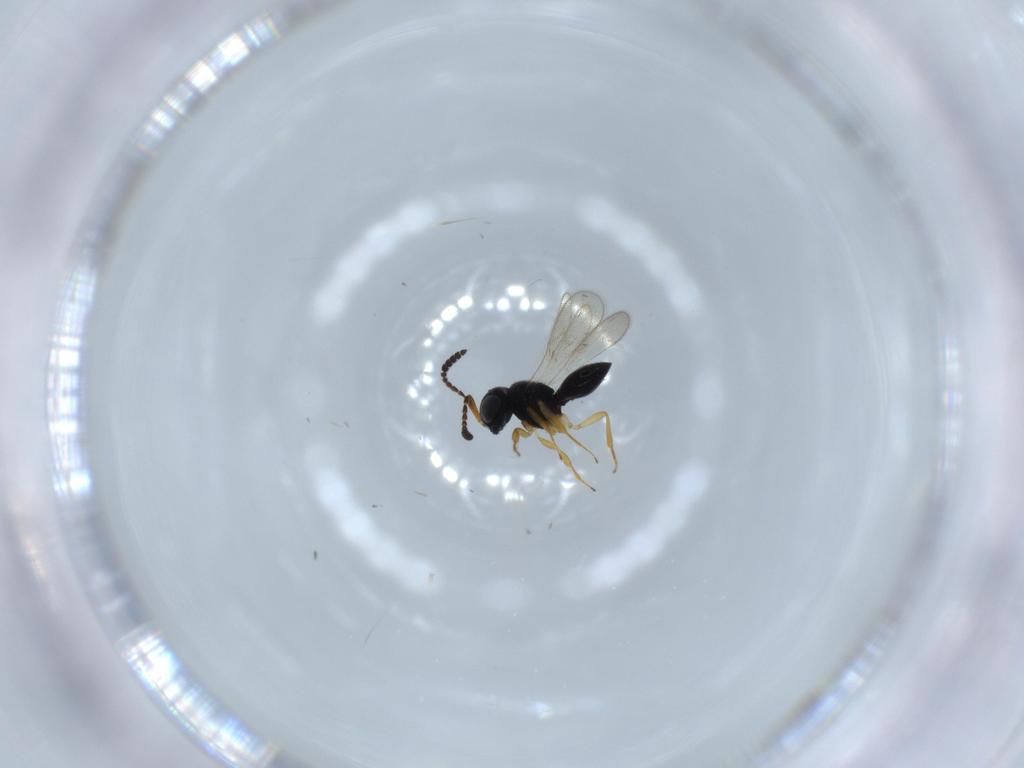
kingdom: Animalia
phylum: Arthropoda
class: Insecta
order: Hymenoptera
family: Scelionidae
